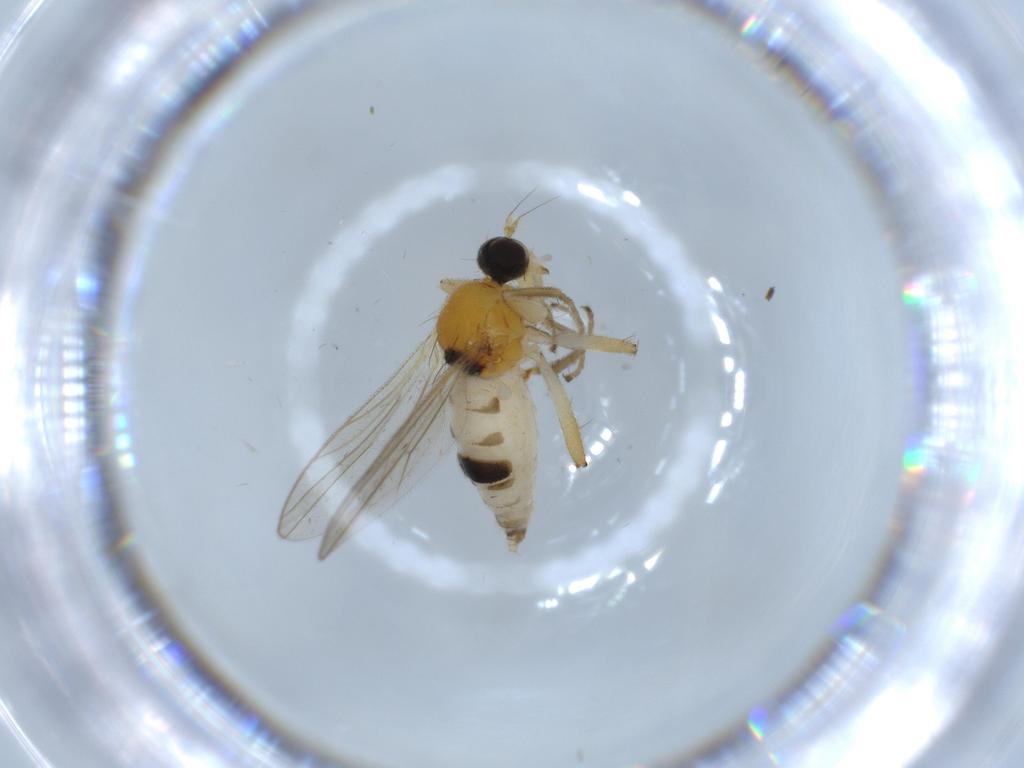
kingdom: Animalia
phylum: Arthropoda
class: Insecta
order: Diptera
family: Hybotidae
